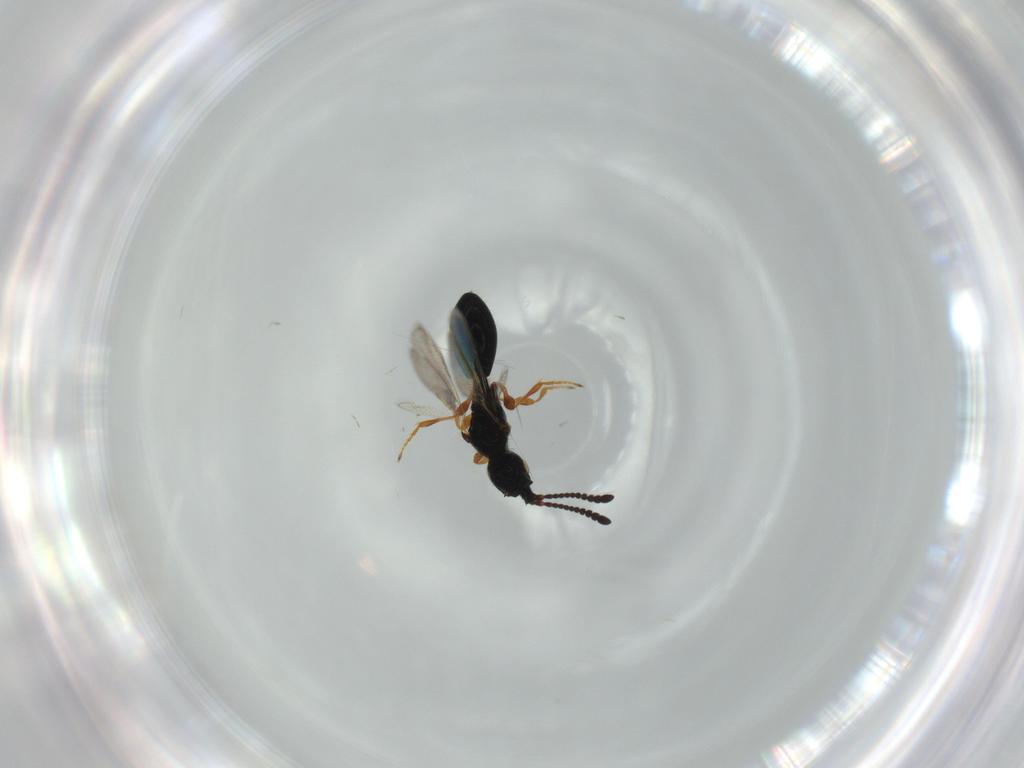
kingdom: Animalia
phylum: Arthropoda
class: Insecta
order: Hymenoptera
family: Diapriidae
